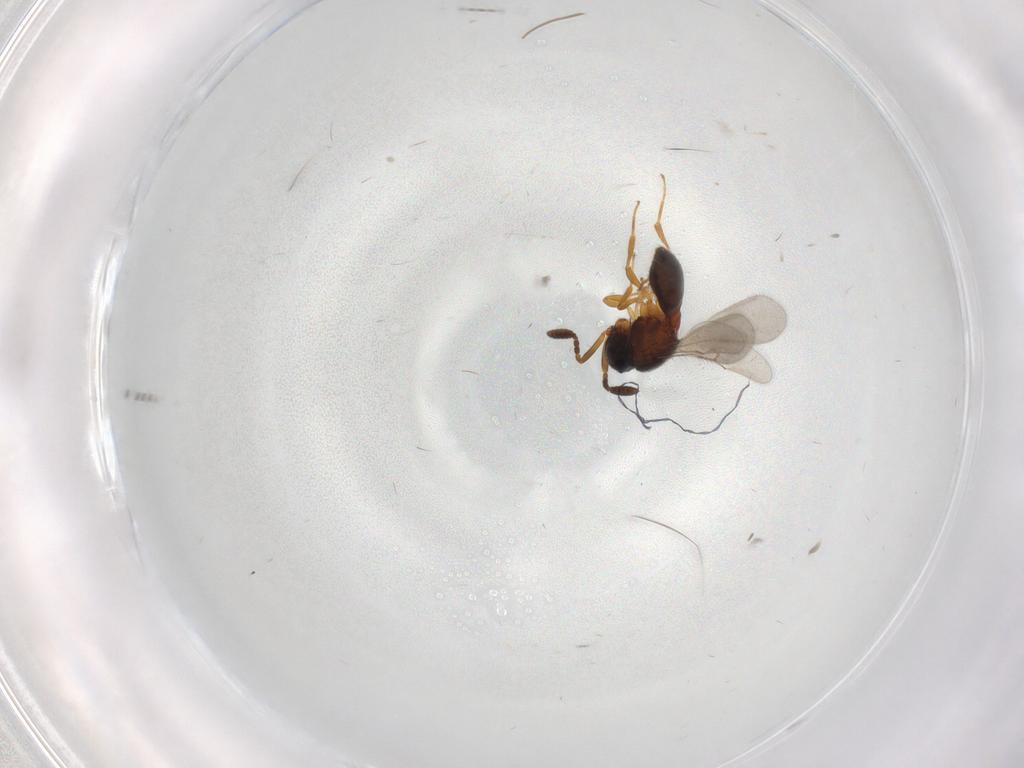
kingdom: Animalia
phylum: Arthropoda
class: Insecta
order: Hymenoptera
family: Scelionidae
